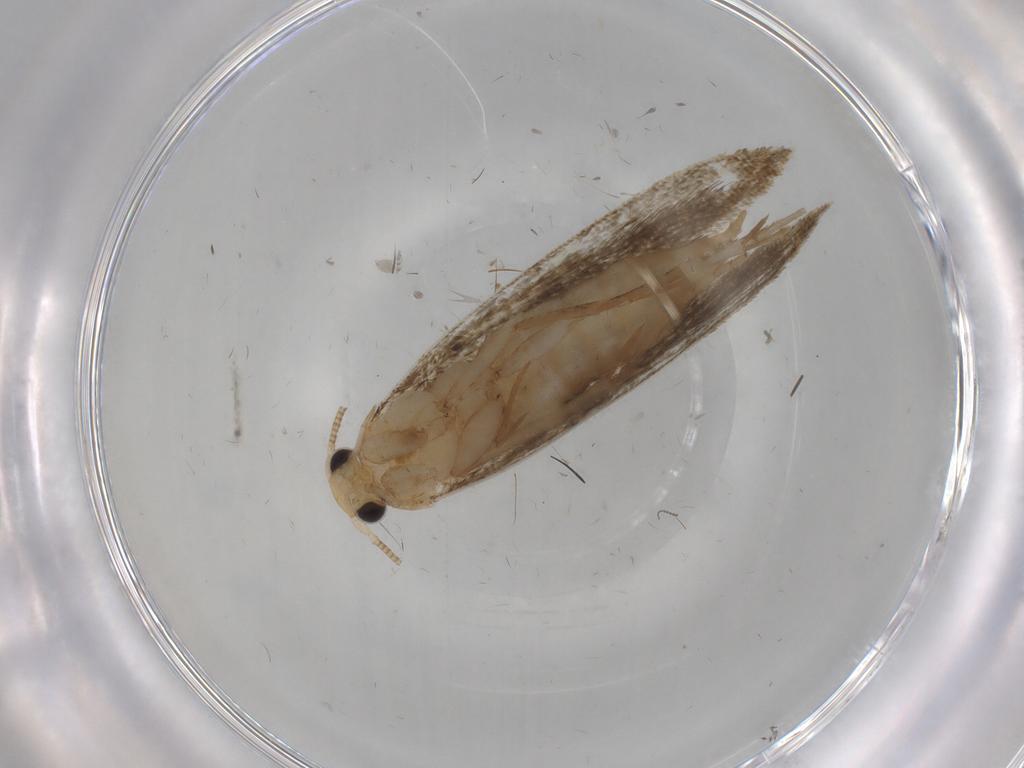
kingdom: Animalia
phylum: Arthropoda
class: Insecta
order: Lepidoptera
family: Tineidae
